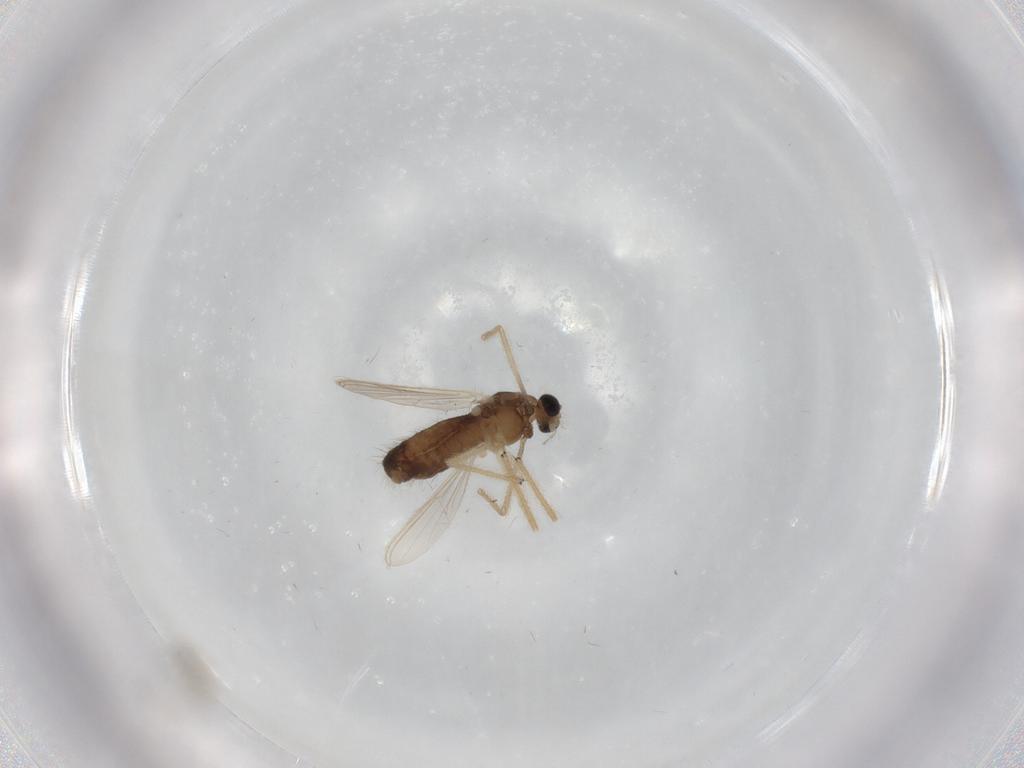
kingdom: Animalia
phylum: Arthropoda
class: Insecta
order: Diptera
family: Chironomidae
